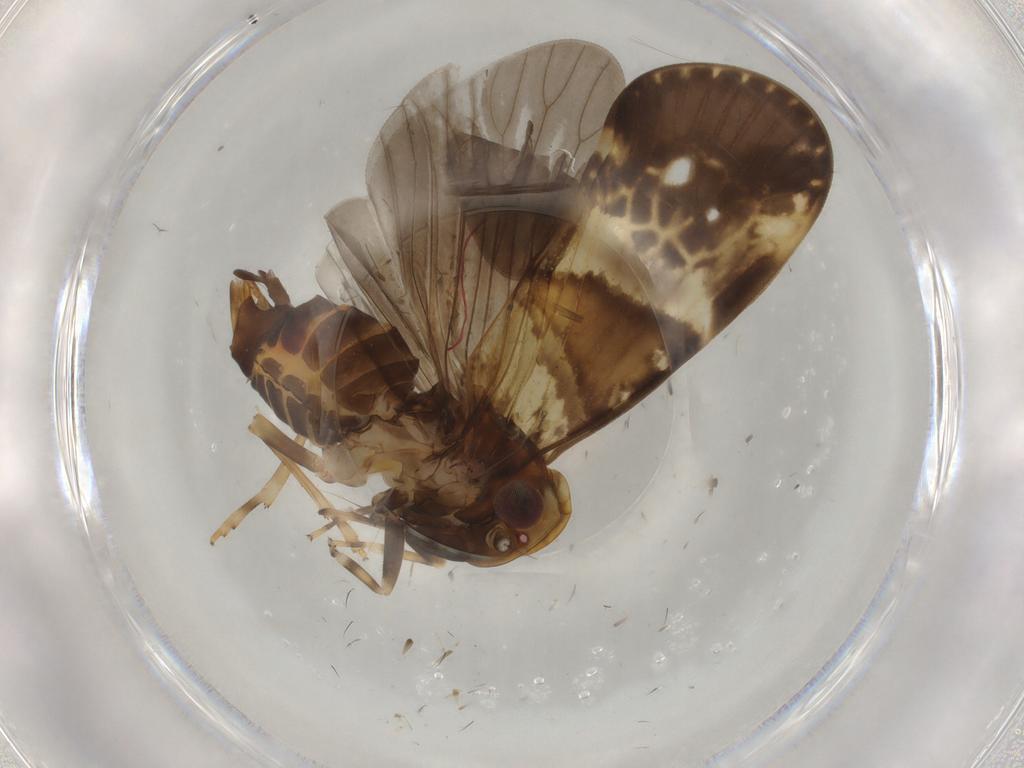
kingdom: Animalia
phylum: Arthropoda
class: Insecta
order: Hemiptera
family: Cixiidae
